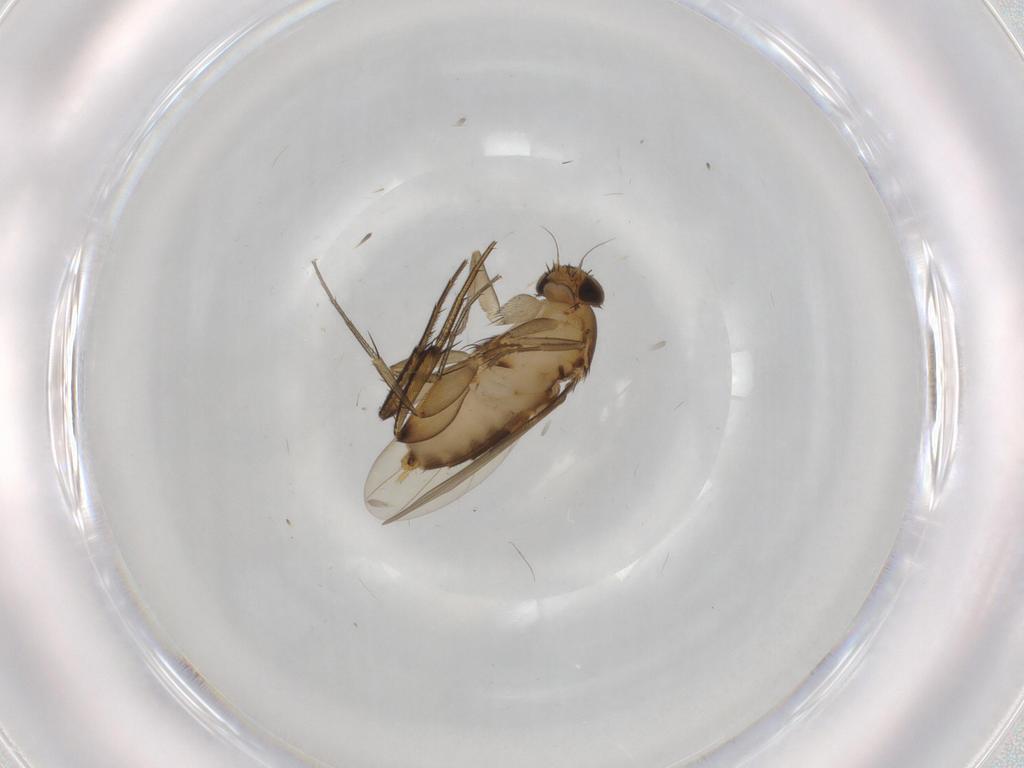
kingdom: Animalia
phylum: Arthropoda
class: Insecta
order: Diptera
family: Phoridae
